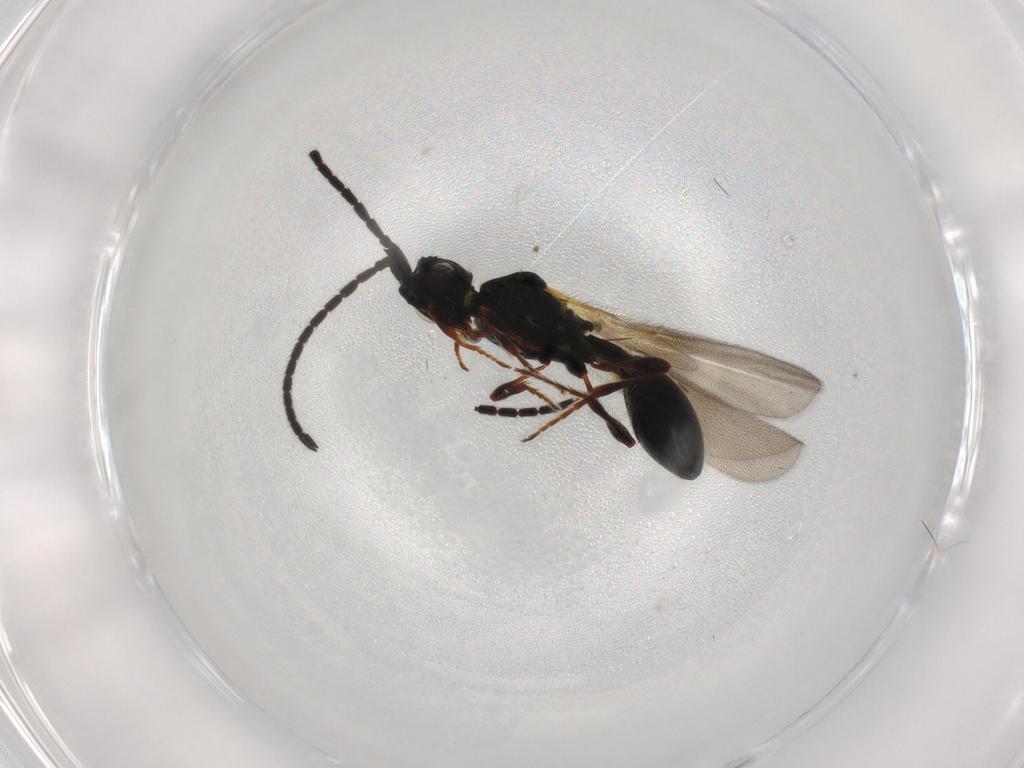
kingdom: Animalia
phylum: Arthropoda
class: Insecta
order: Hymenoptera
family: Diapriidae
